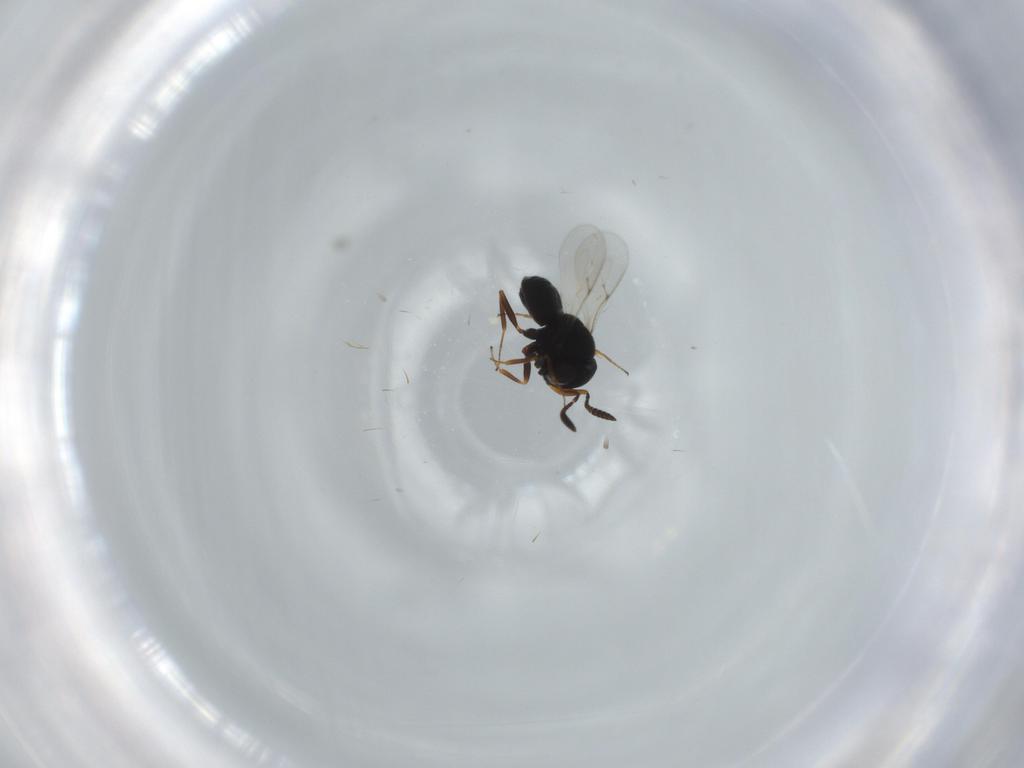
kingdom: Animalia
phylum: Arthropoda
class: Insecta
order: Hymenoptera
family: Scelionidae
